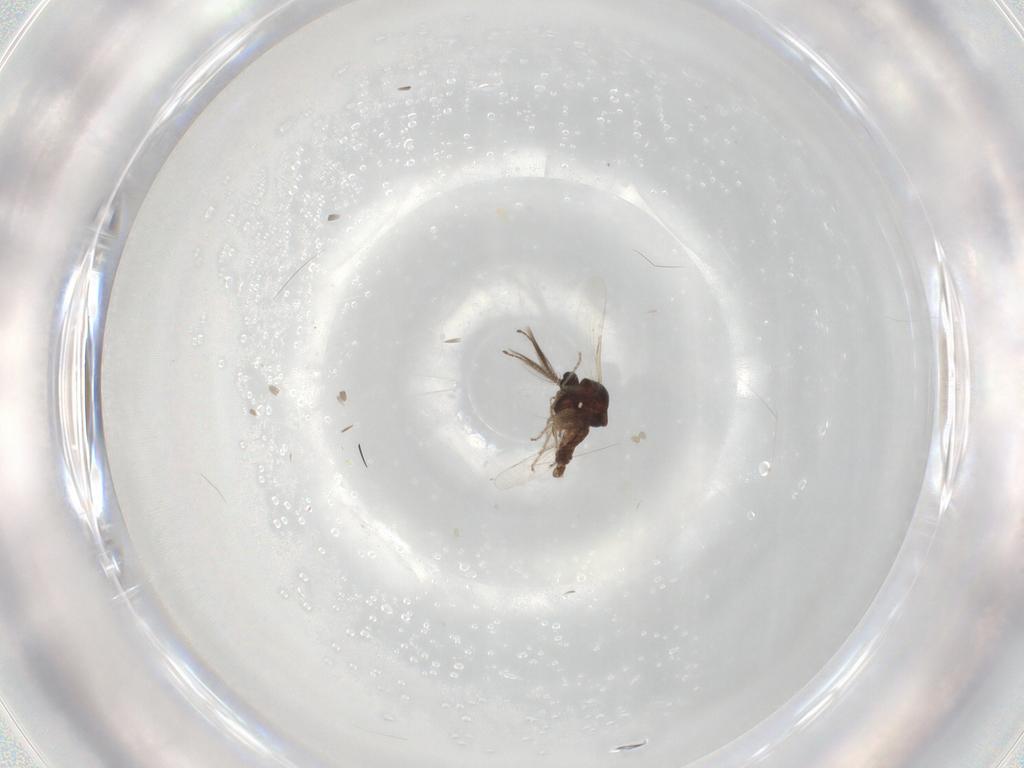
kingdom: Animalia
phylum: Arthropoda
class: Insecta
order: Diptera
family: Ceratopogonidae
